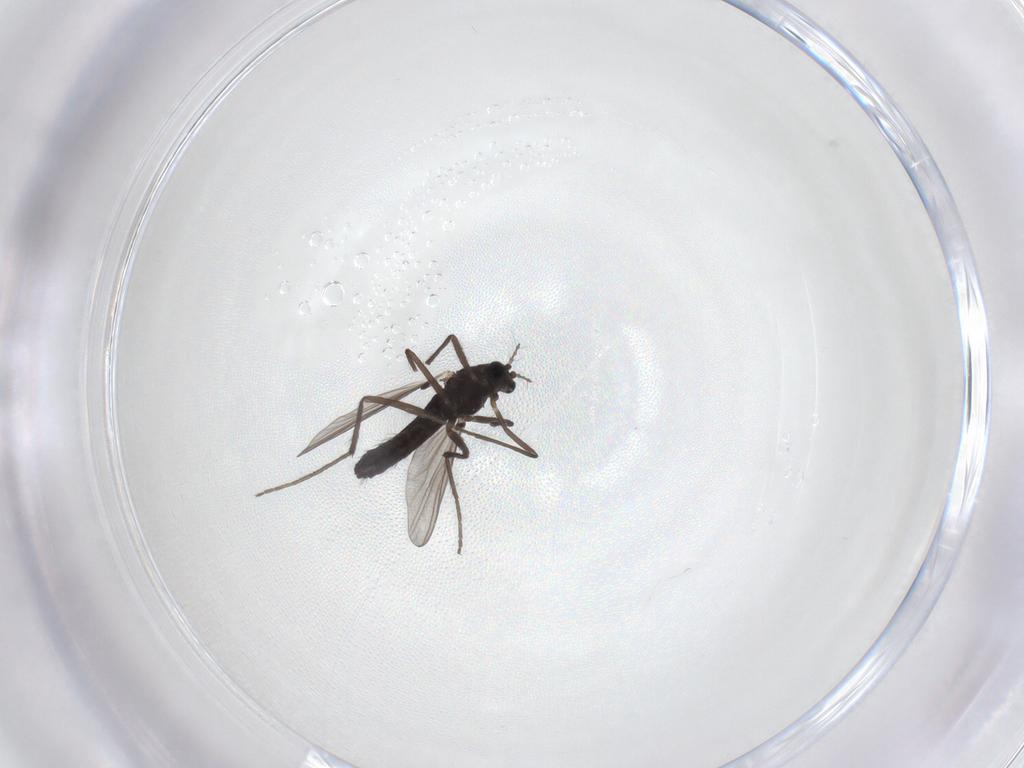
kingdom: Animalia
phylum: Arthropoda
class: Insecta
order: Diptera
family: Chironomidae
